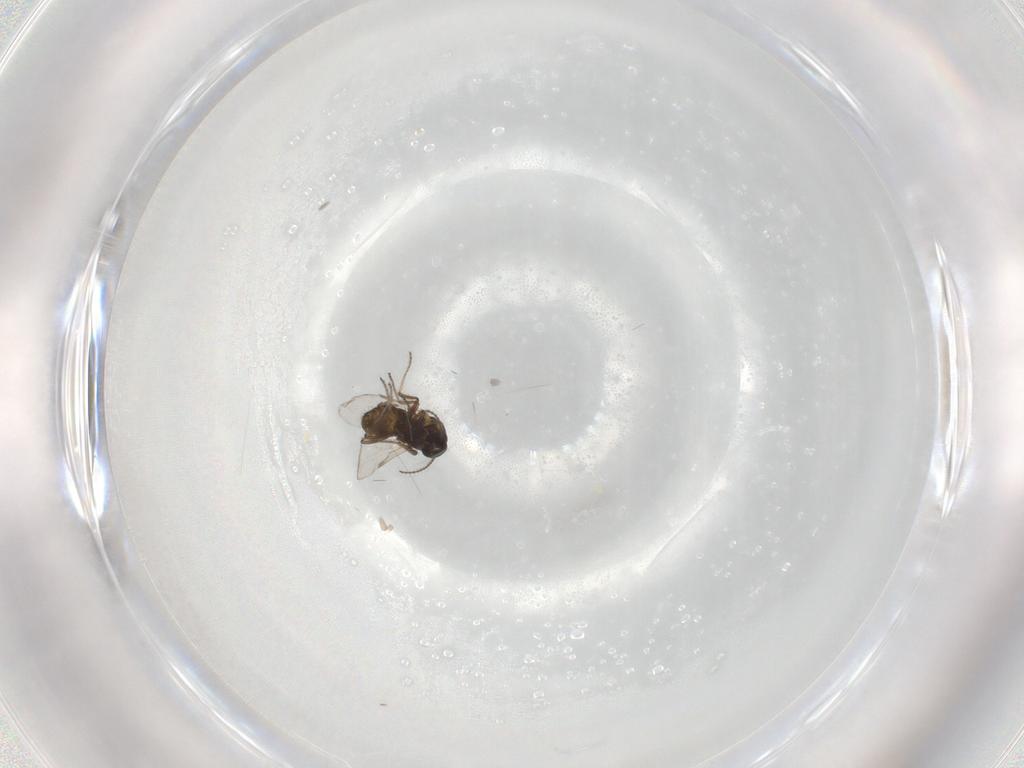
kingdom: Animalia
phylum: Arthropoda
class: Insecta
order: Diptera
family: Ceratopogonidae
